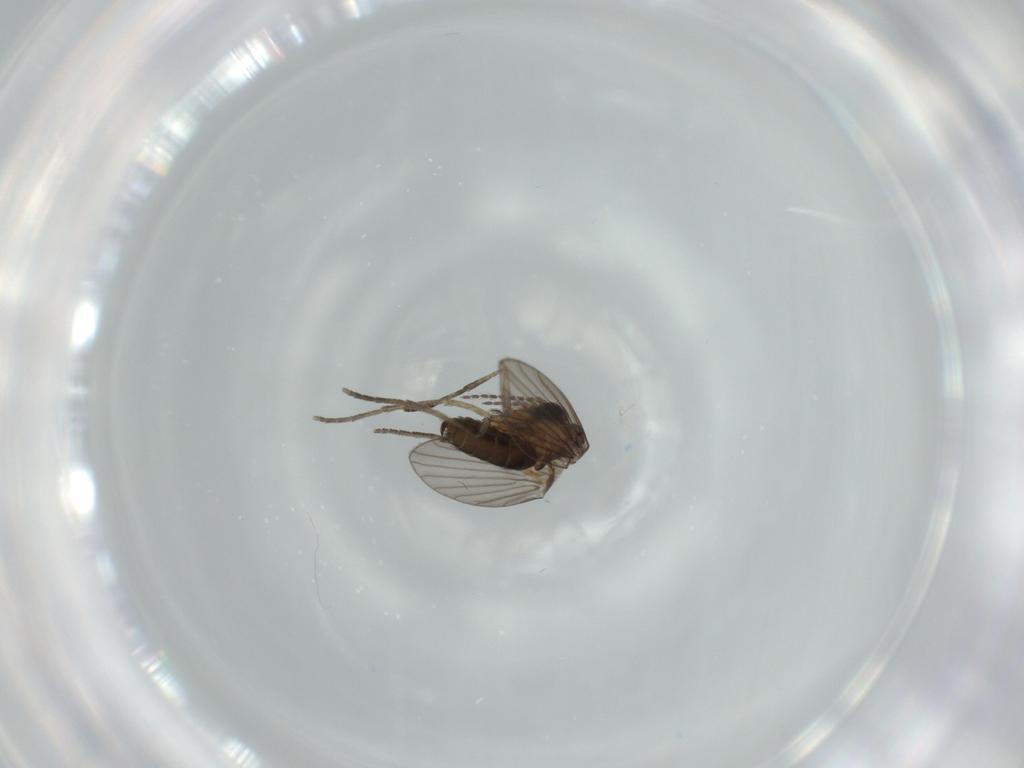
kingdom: Animalia
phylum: Arthropoda
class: Insecta
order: Diptera
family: Psychodidae
